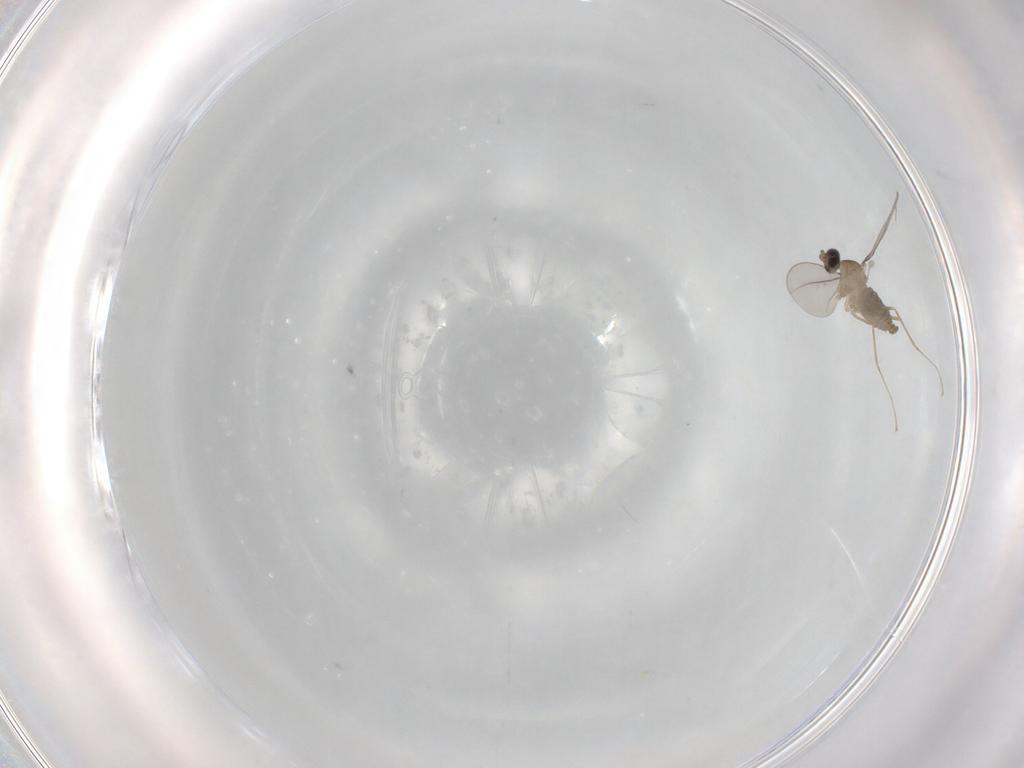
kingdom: Animalia
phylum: Arthropoda
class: Insecta
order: Diptera
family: Cecidomyiidae
